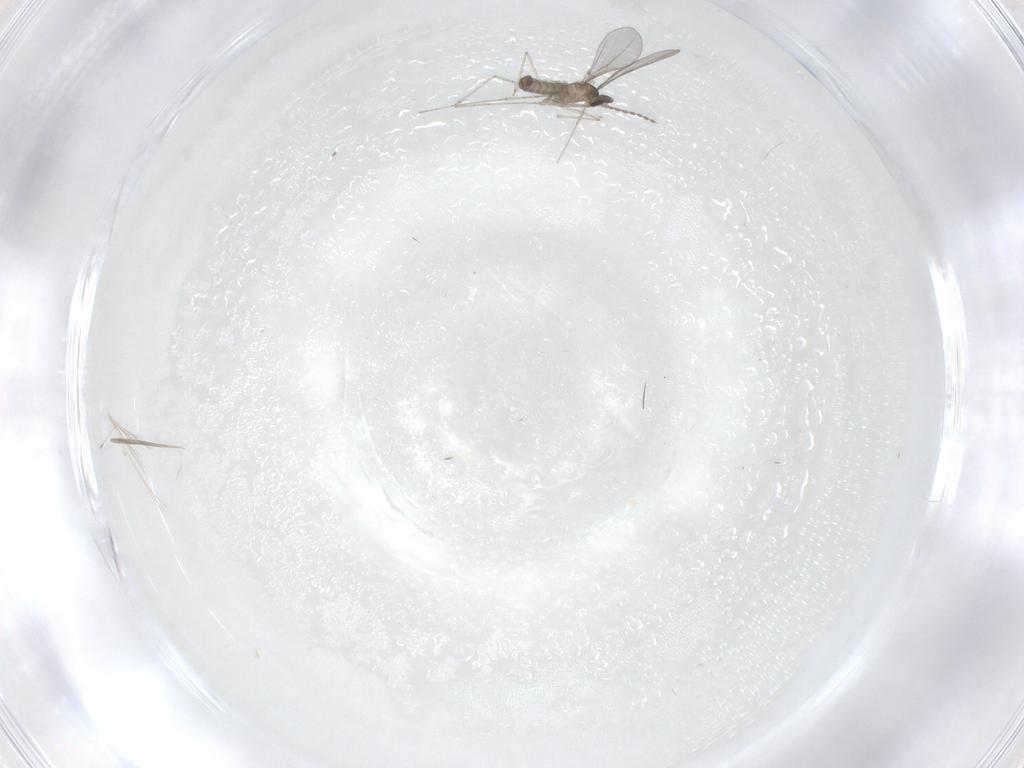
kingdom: Animalia
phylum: Arthropoda
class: Insecta
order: Diptera
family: Cecidomyiidae
